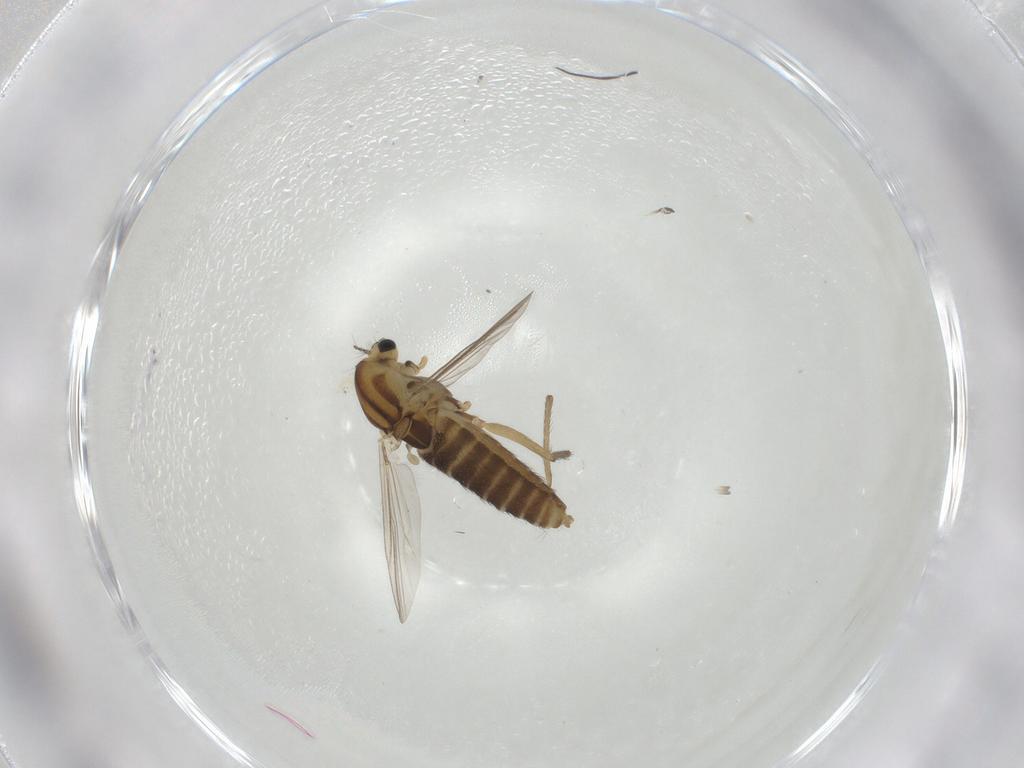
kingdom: Animalia
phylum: Arthropoda
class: Insecta
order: Diptera
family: Chironomidae
